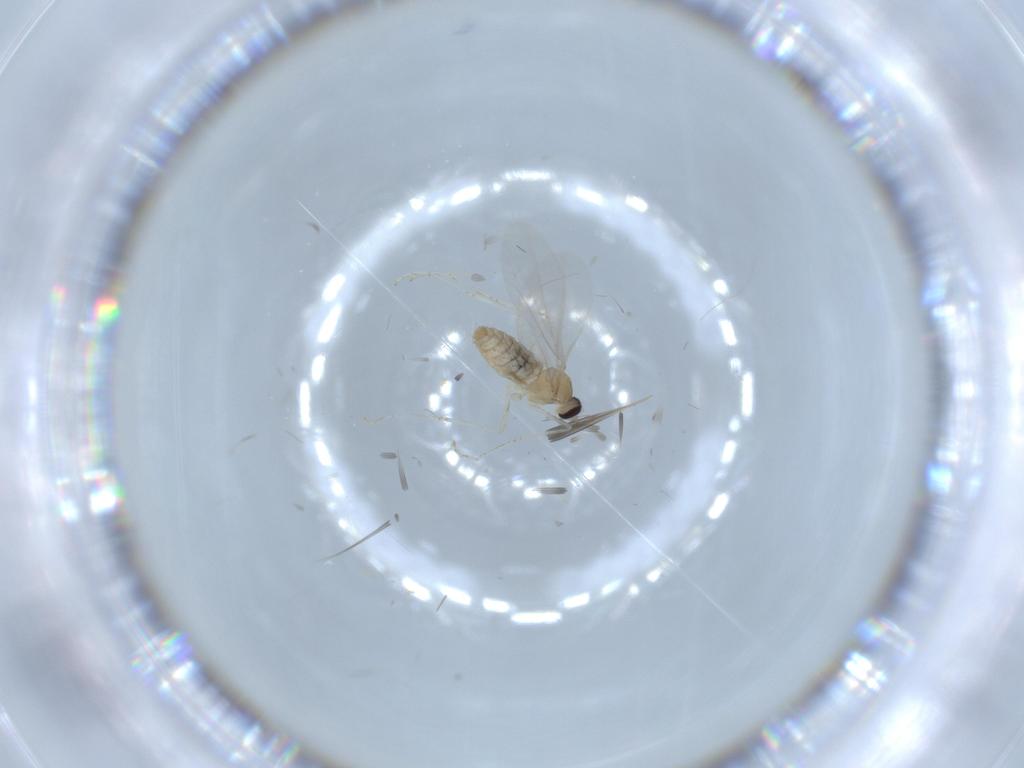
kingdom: Animalia
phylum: Arthropoda
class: Insecta
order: Diptera
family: Cecidomyiidae
